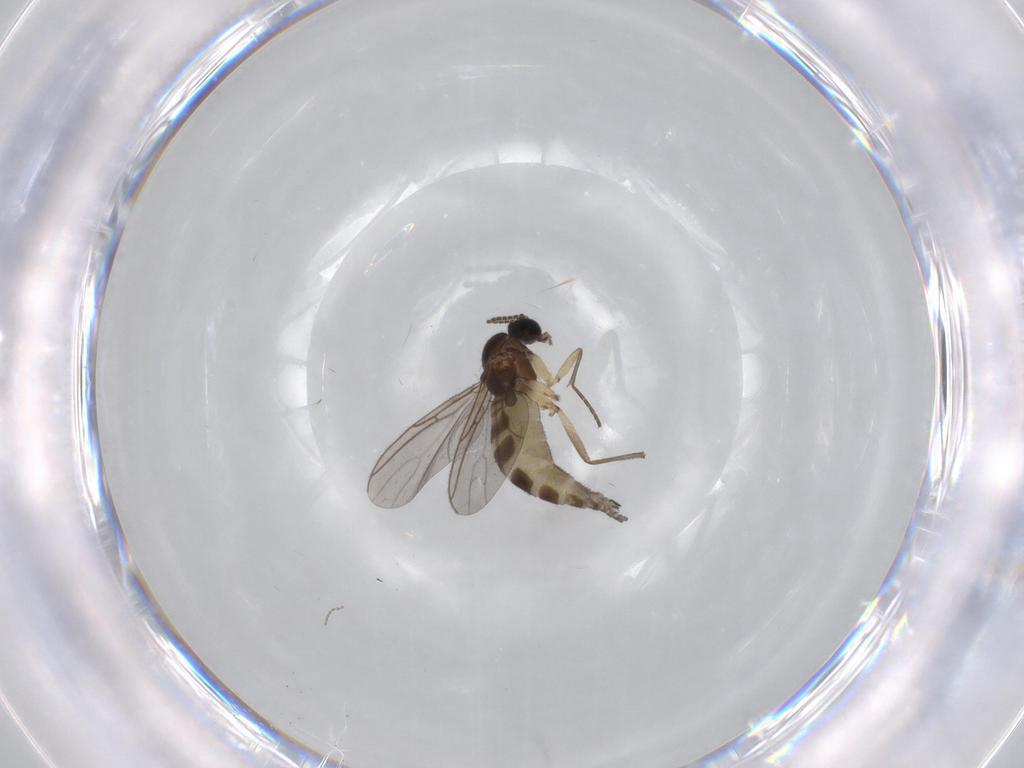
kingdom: Animalia
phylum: Arthropoda
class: Insecta
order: Diptera
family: Sciaridae
